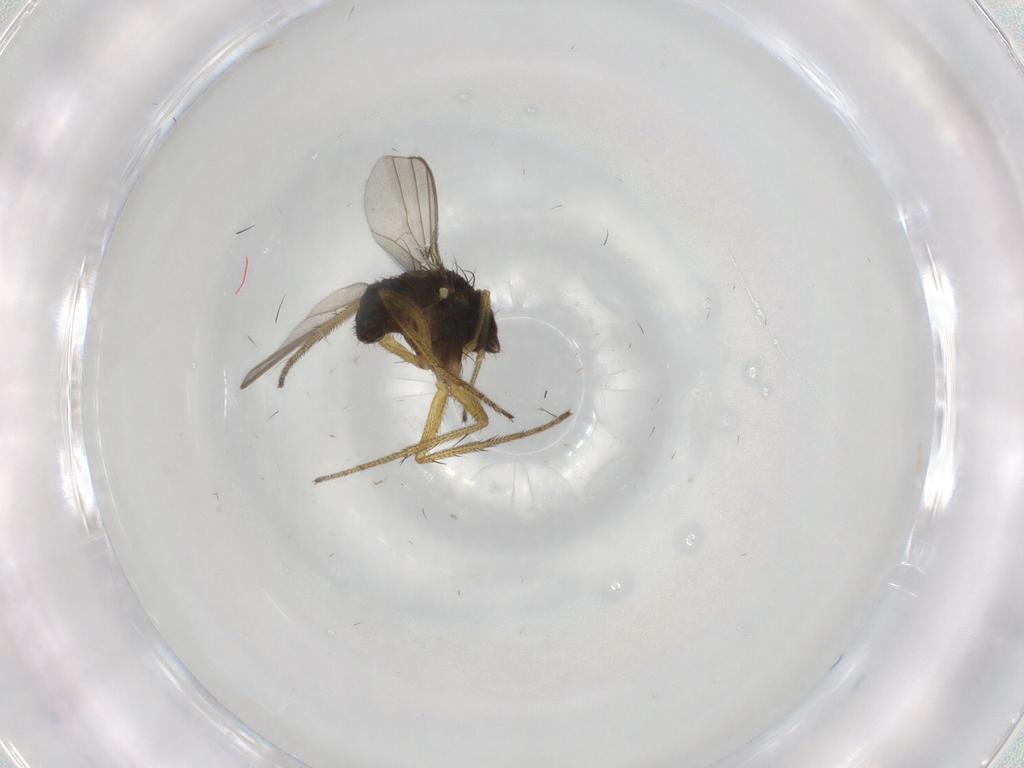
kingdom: Animalia
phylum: Arthropoda
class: Insecta
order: Diptera
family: Dolichopodidae
